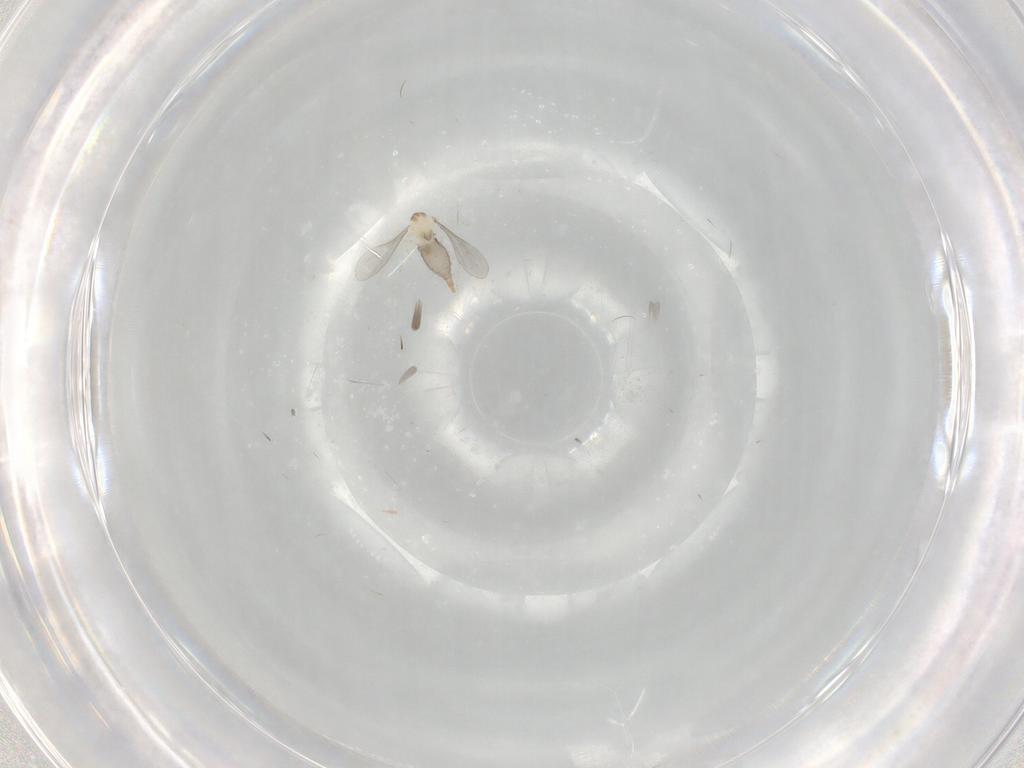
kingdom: Animalia
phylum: Arthropoda
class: Insecta
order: Diptera
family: Cecidomyiidae
